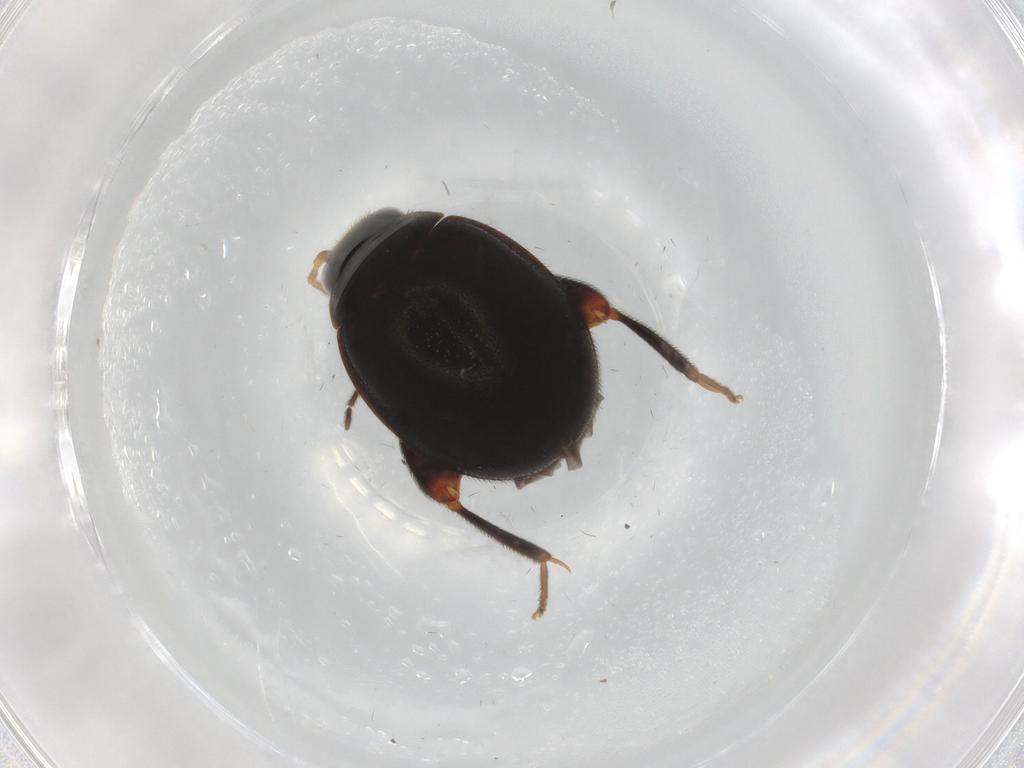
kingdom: Animalia
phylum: Arthropoda
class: Insecta
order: Coleoptera
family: Scirtidae
